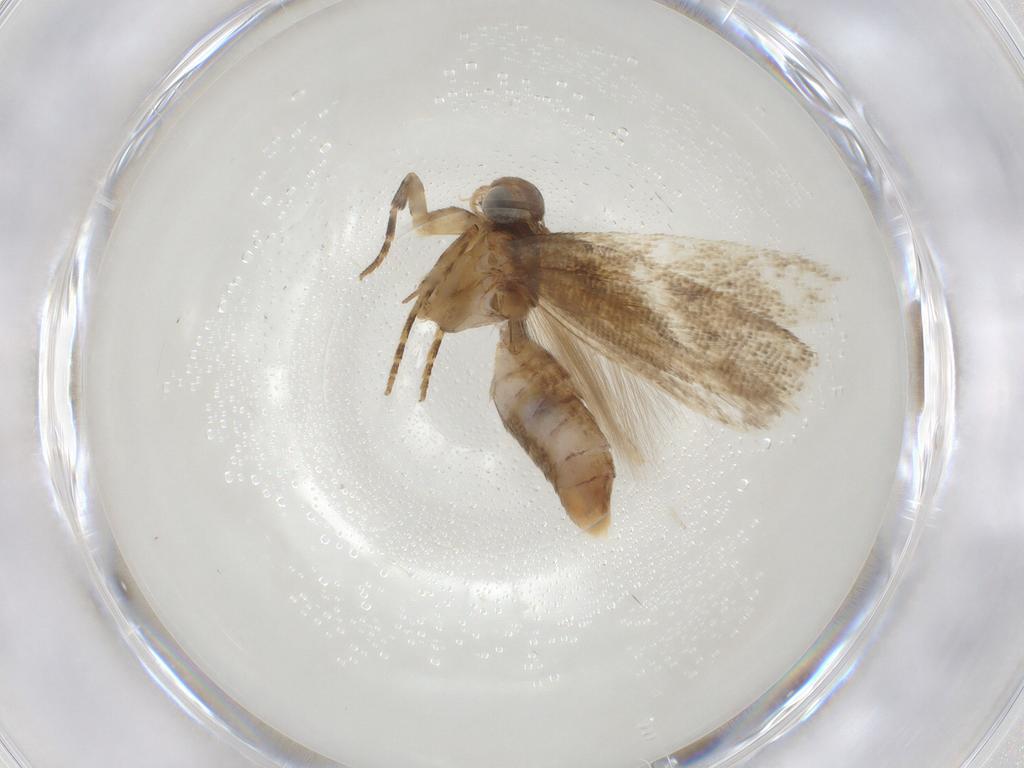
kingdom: Animalia
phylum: Arthropoda
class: Insecta
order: Lepidoptera
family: Gelechiidae
